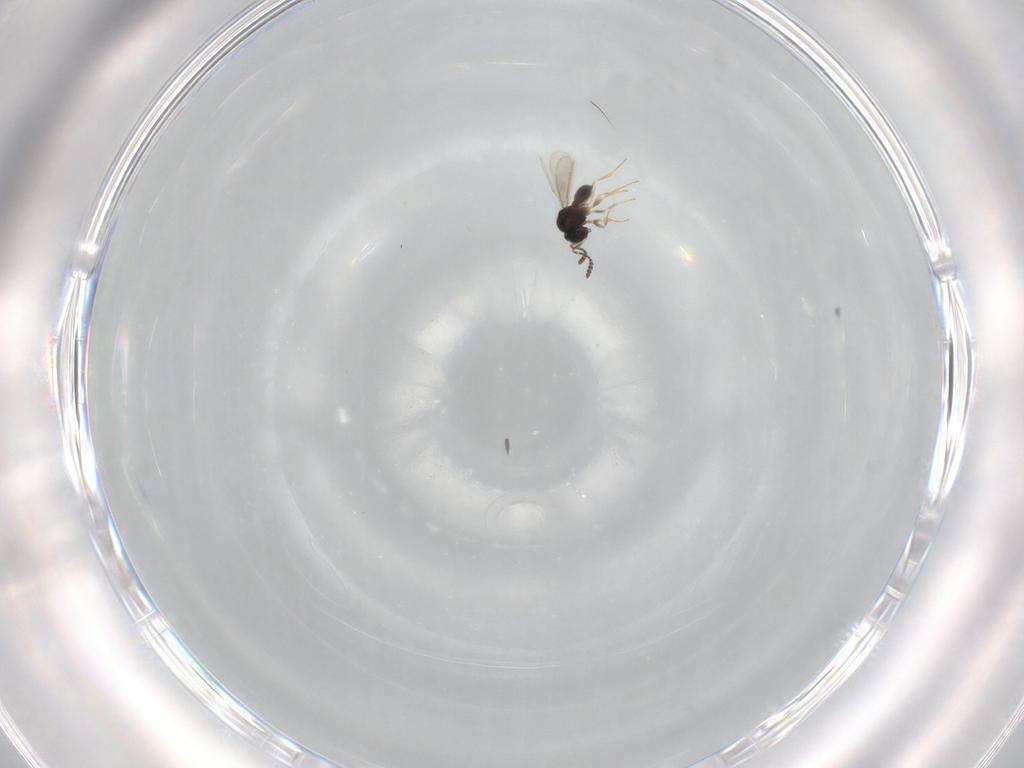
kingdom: Animalia
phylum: Arthropoda
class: Insecta
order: Hymenoptera
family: Scelionidae
